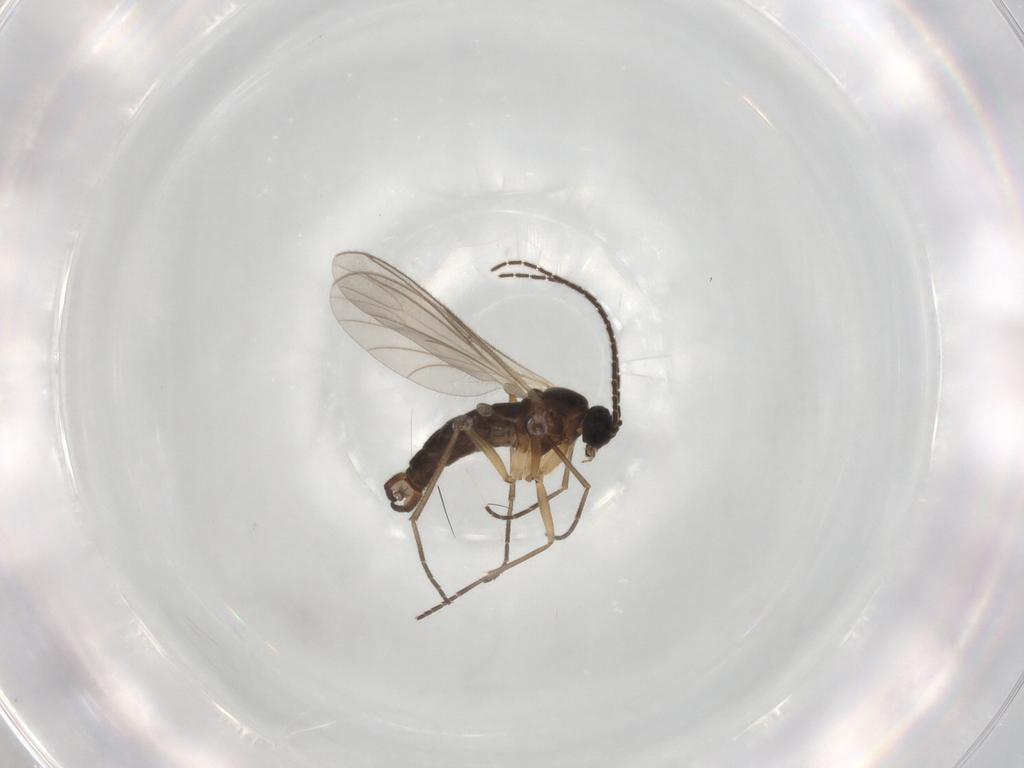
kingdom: Animalia
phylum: Arthropoda
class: Insecta
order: Diptera
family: Sciaridae
